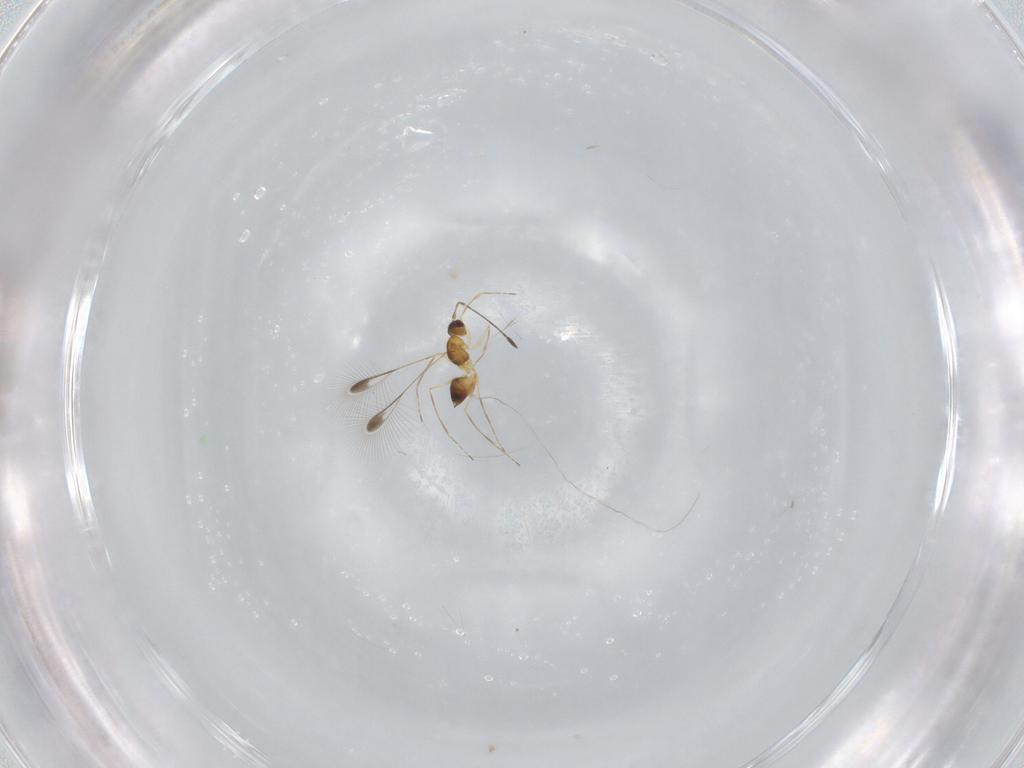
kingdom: Animalia
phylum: Arthropoda
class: Insecta
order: Hymenoptera
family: Mymaridae
